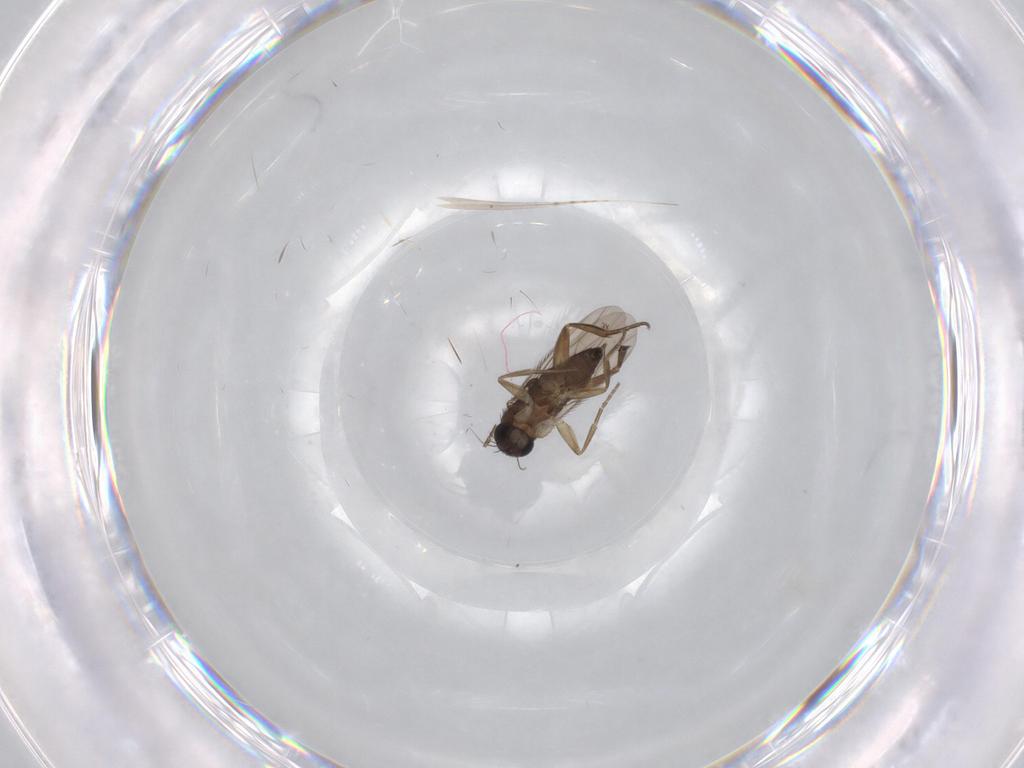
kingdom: Animalia
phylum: Arthropoda
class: Insecta
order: Diptera
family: Phoridae
